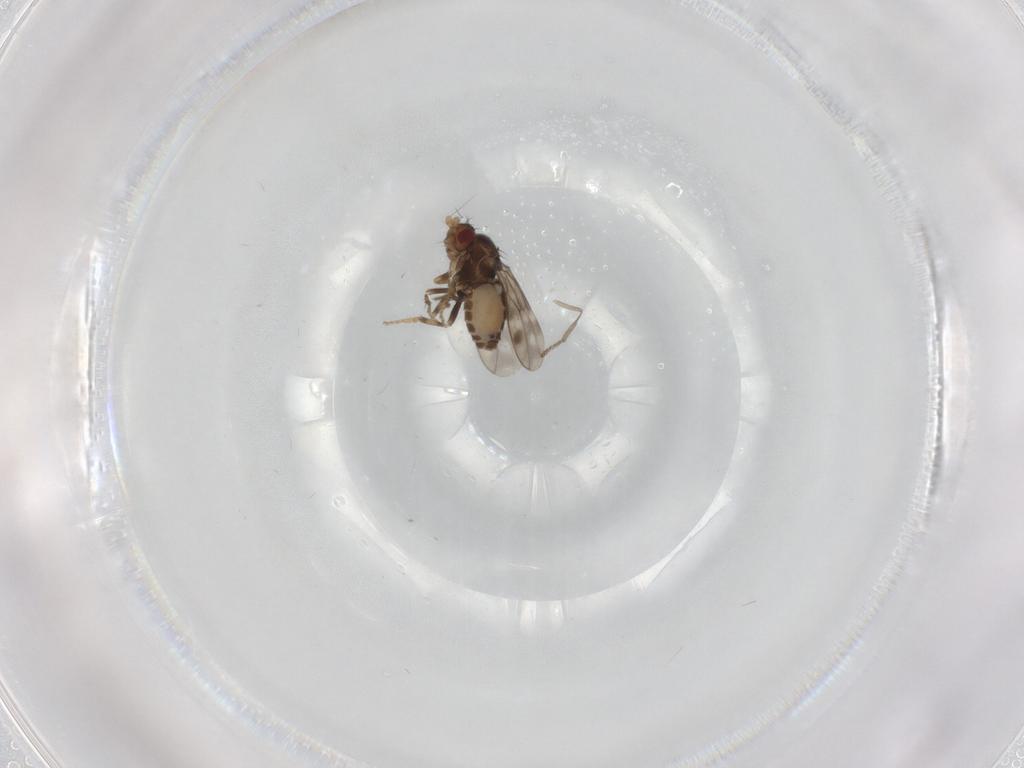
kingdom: Animalia
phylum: Arthropoda
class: Insecta
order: Diptera
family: Sphaeroceridae
